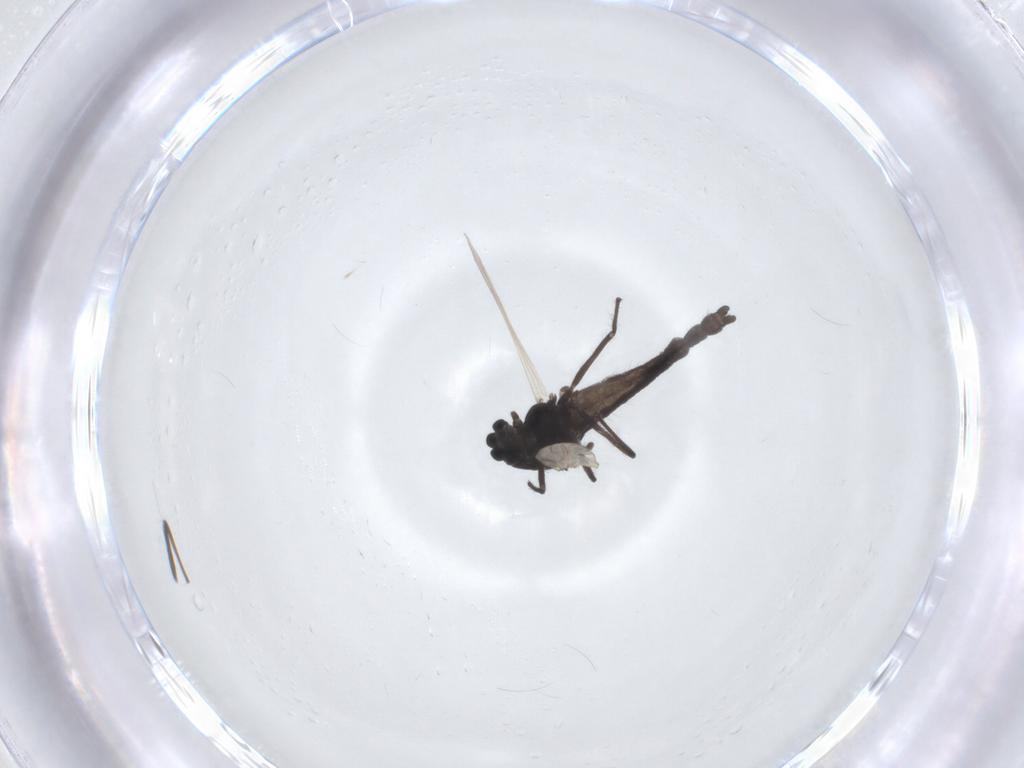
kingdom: Animalia
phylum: Arthropoda
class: Insecta
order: Diptera
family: Chironomidae
